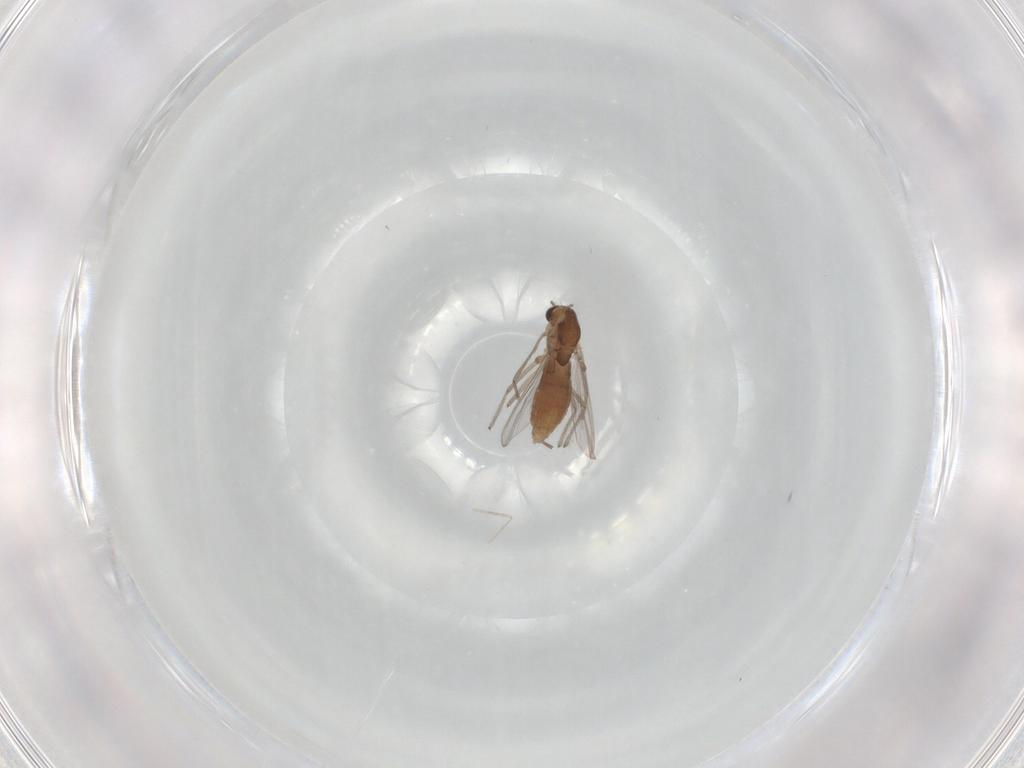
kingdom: Animalia
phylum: Arthropoda
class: Insecta
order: Diptera
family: Chironomidae
